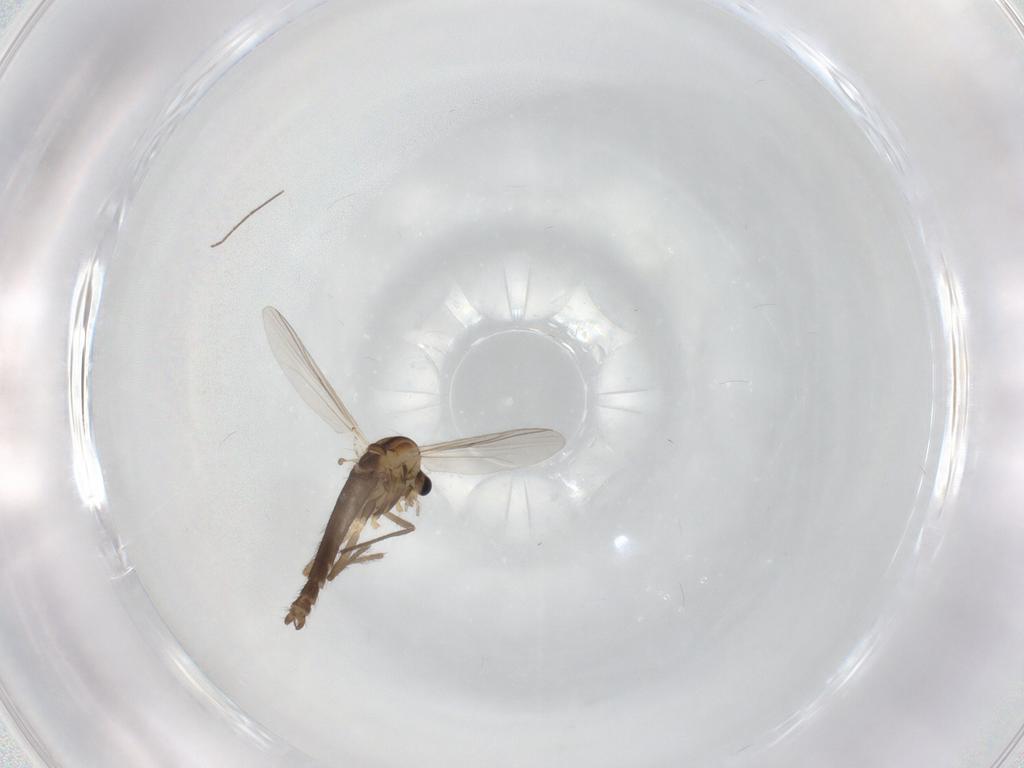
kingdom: Animalia
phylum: Arthropoda
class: Insecta
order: Diptera
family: Chironomidae
